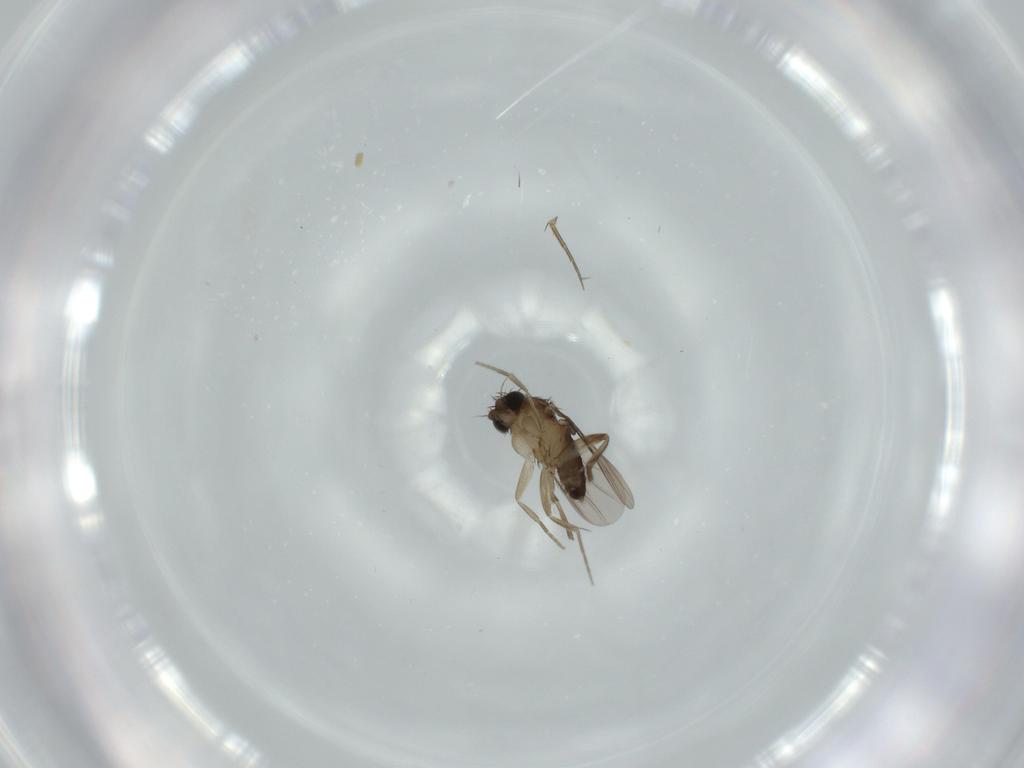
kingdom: Animalia
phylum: Arthropoda
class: Insecta
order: Diptera
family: Phoridae
